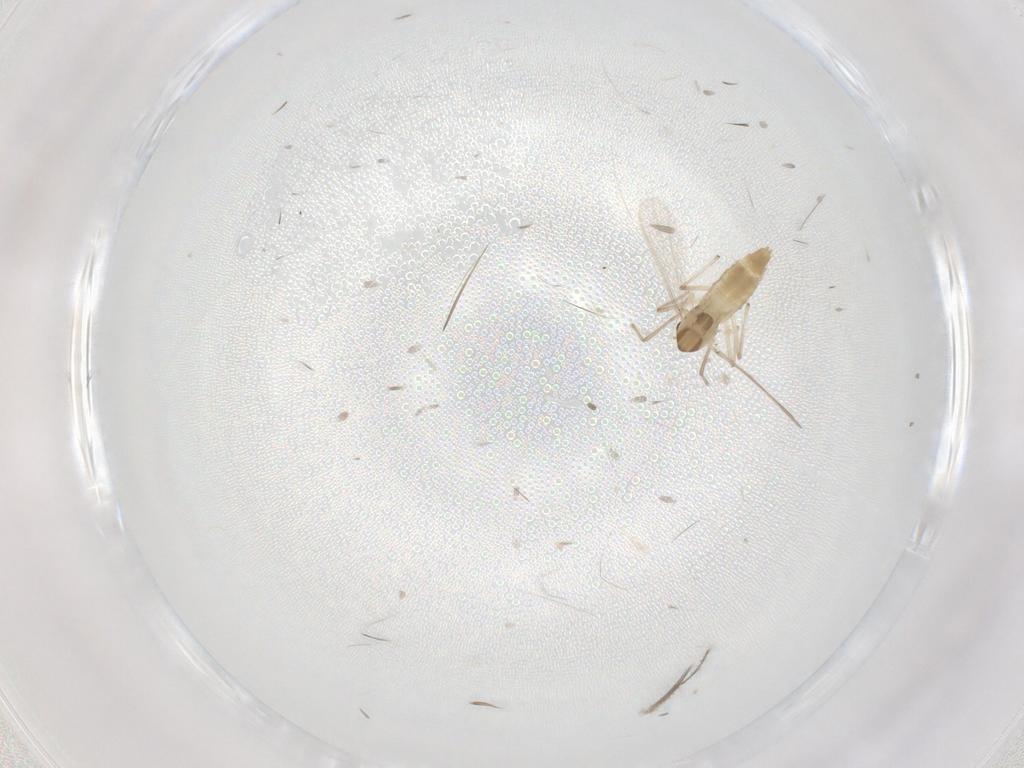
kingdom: Animalia
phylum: Arthropoda
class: Insecta
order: Diptera
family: Chironomidae
